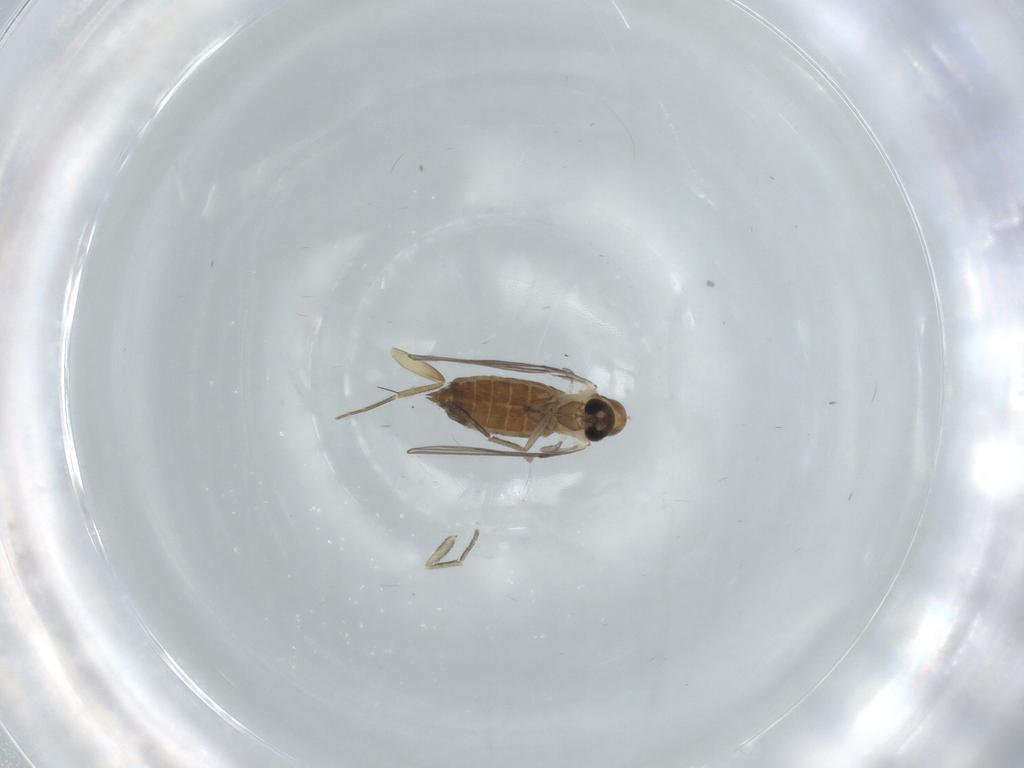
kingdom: Animalia
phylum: Arthropoda
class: Insecta
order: Diptera
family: Phoridae
